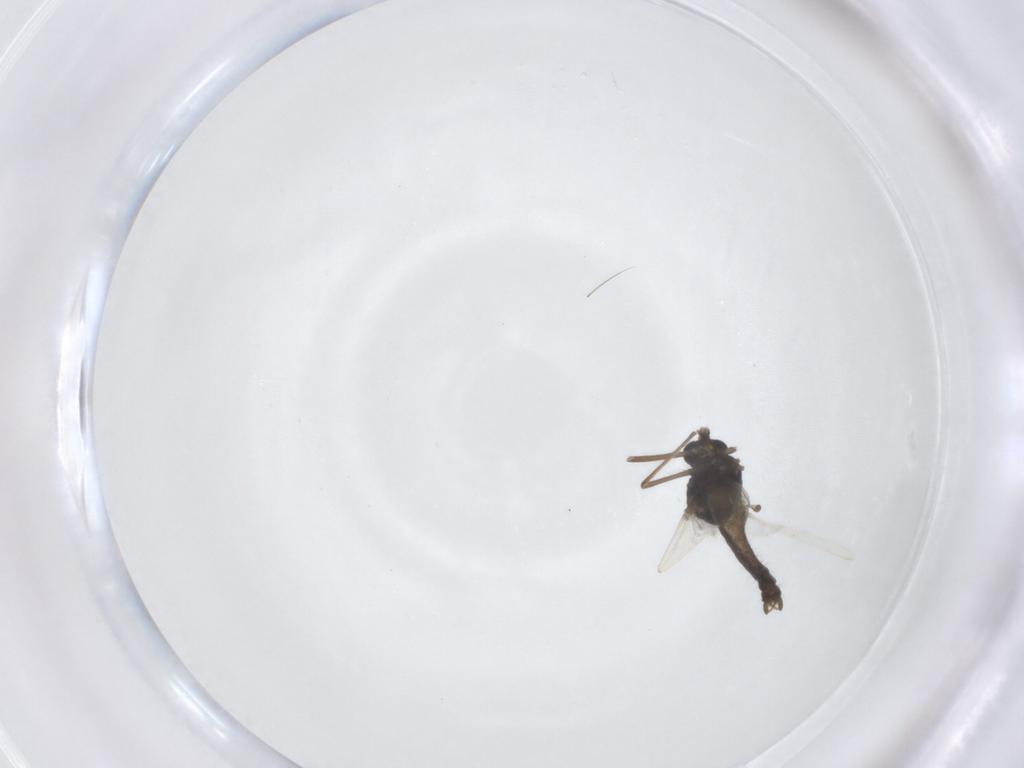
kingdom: Animalia
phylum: Arthropoda
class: Insecta
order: Diptera
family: Chironomidae
